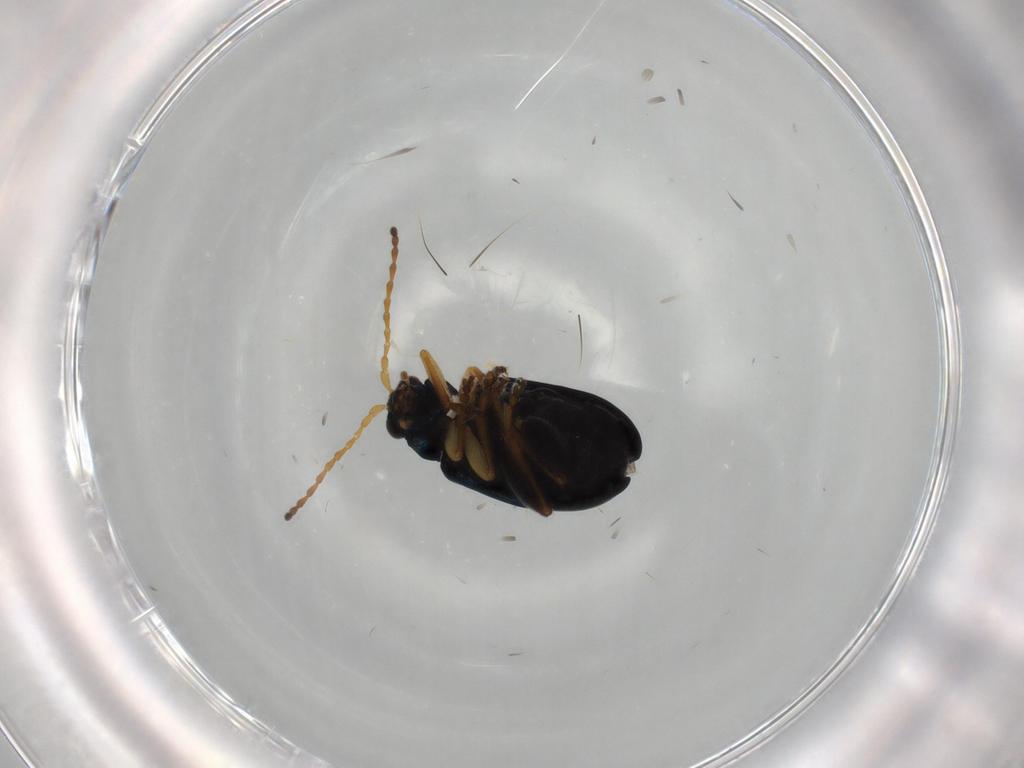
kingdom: Animalia
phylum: Arthropoda
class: Insecta
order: Coleoptera
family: Chrysomelidae
